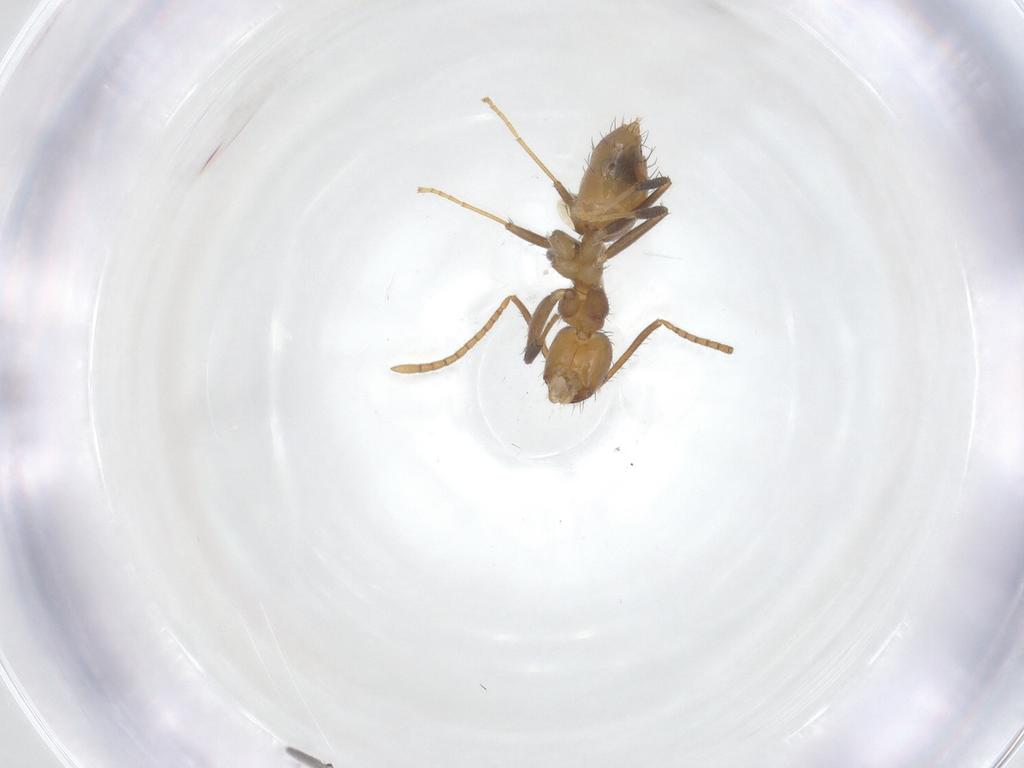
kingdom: Animalia
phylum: Arthropoda
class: Insecta
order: Hymenoptera
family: Formicidae
